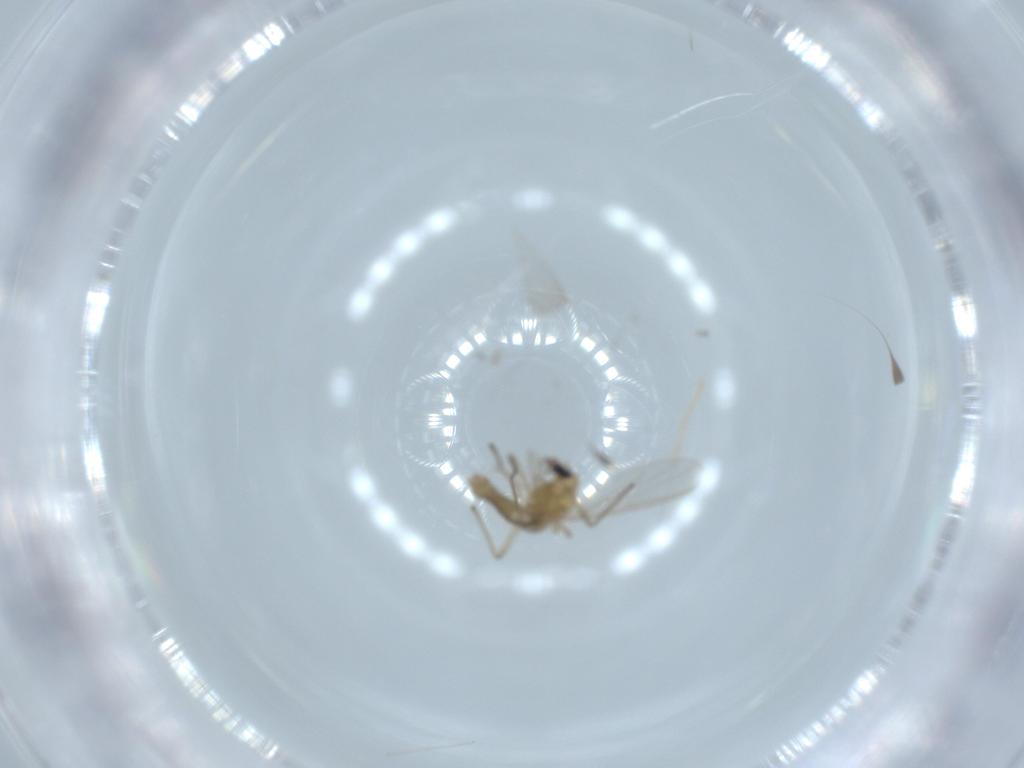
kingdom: Animalia
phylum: Arthropoda
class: Insecta
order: Diptera
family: Chironomidae
